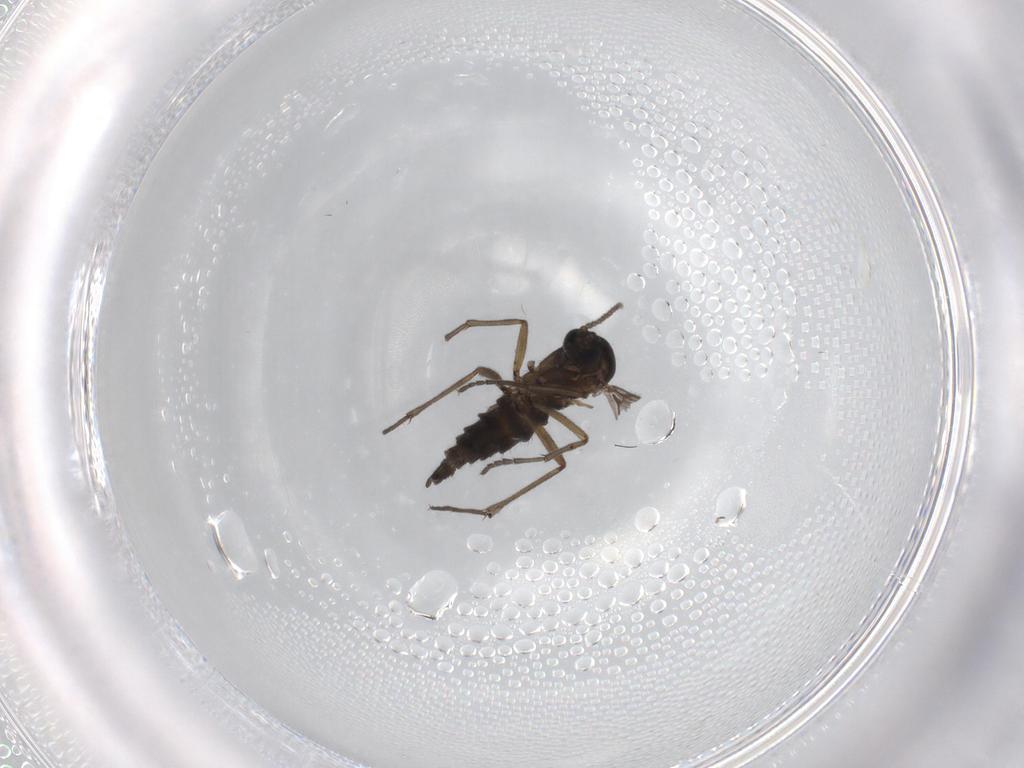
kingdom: Animalia
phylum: Arthropoda
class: Insecta
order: Diptera
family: Sciaridae
